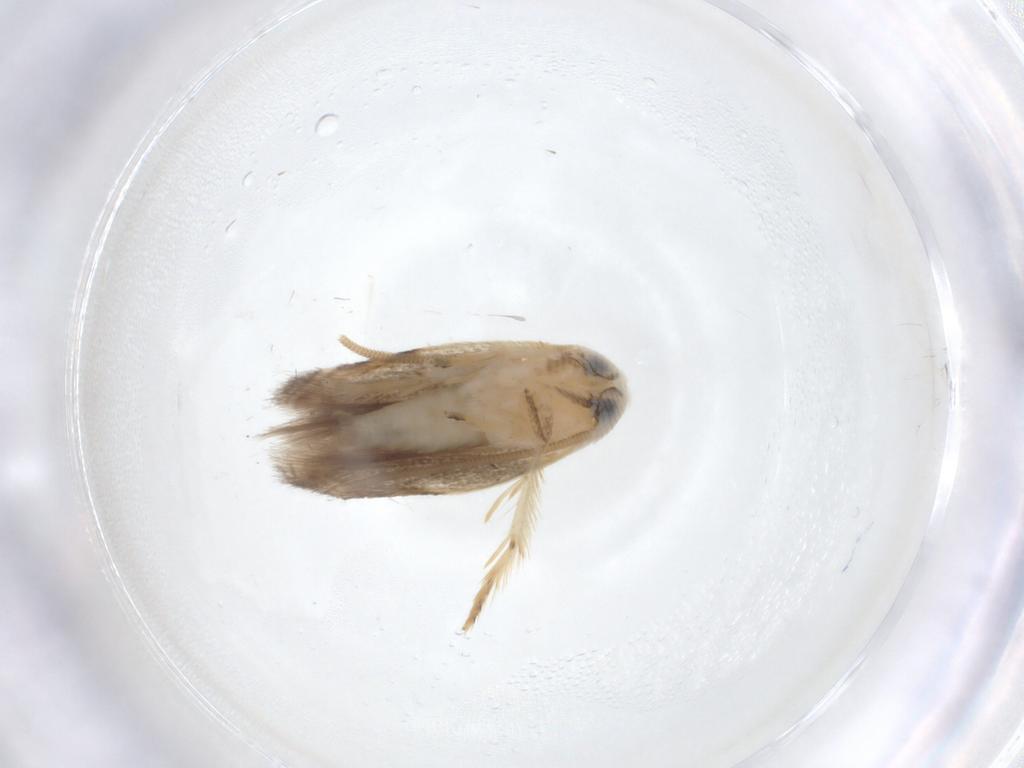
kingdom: Animalia
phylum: Arthropoda
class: Insecta
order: Lepidoptera
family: Opostegidae
